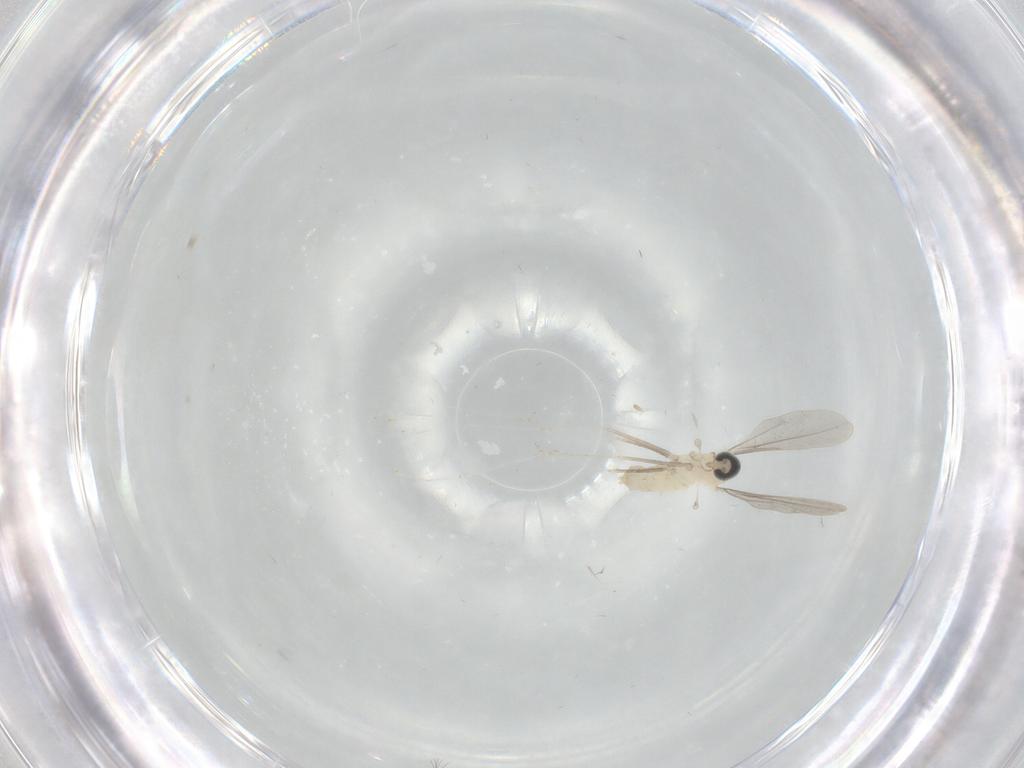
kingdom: Animalia
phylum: Arthropoda
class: Insecta
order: Diptera
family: Cecidomyiidae
